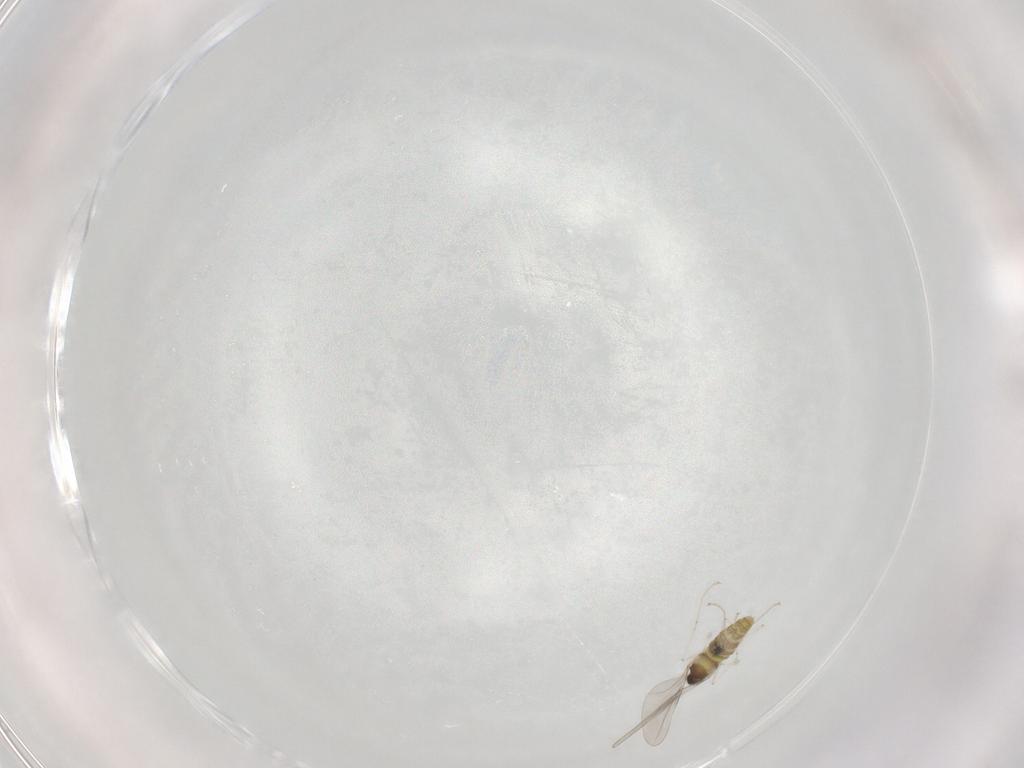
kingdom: Animalia
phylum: Arthropoda
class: Insecta
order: Diptera
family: Cecidomyiidae
